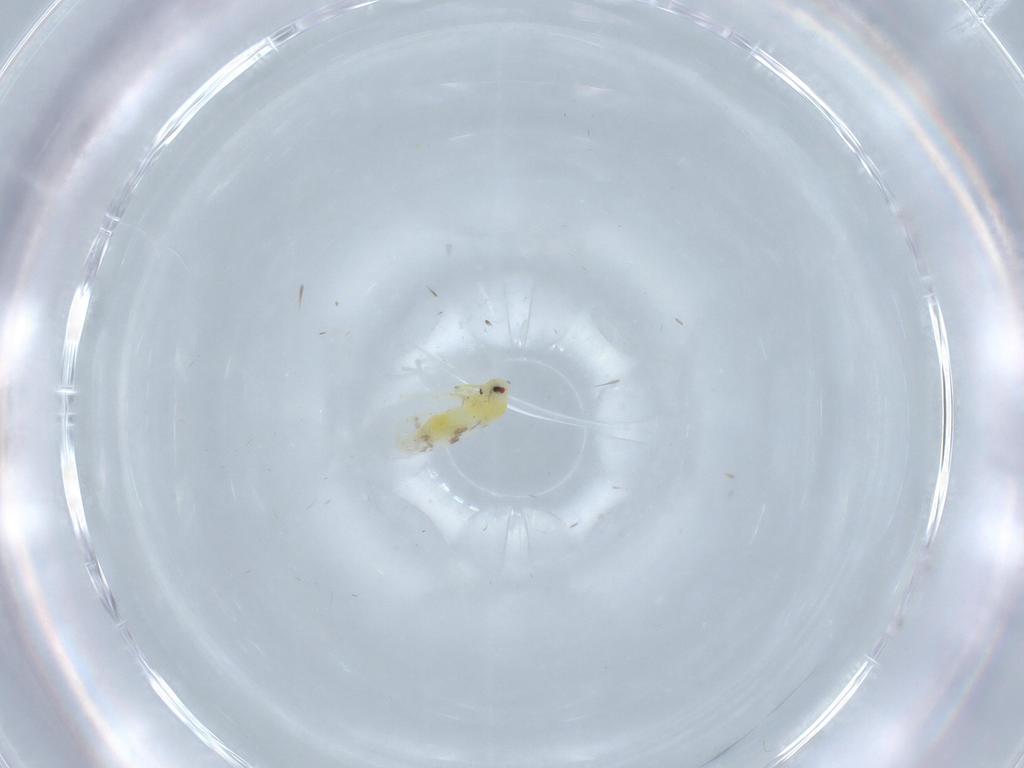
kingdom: Animalia
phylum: Arthropoda
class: Insecta
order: Hemiptera
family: Aleyrodidae
